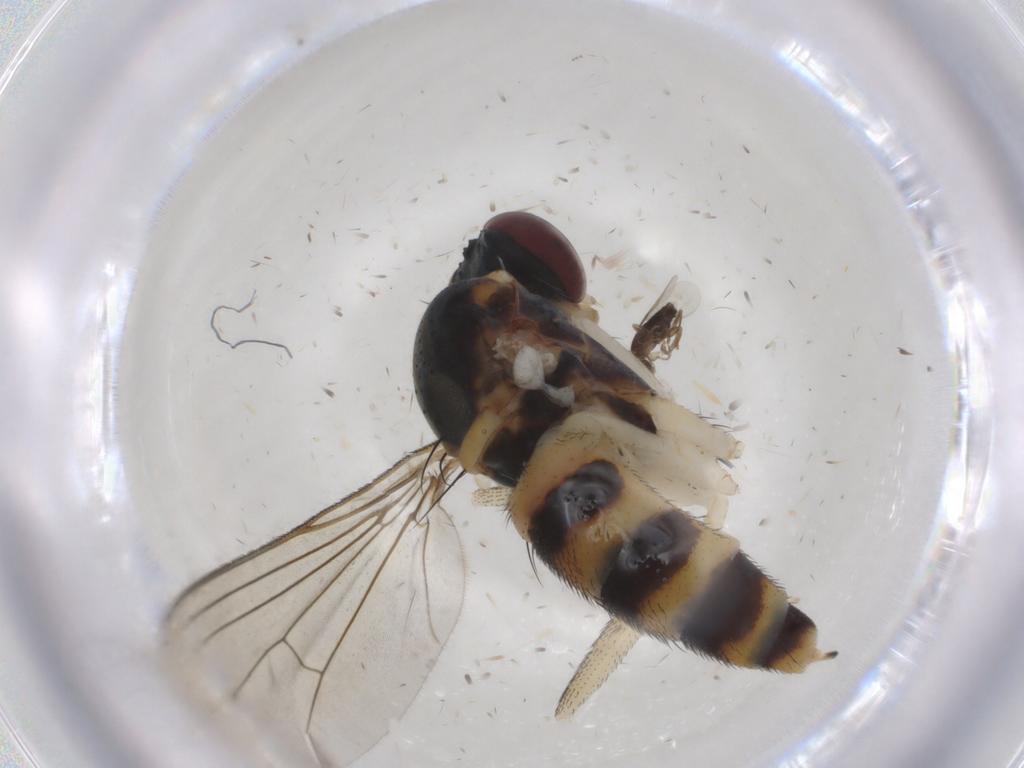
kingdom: Animalia
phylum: Arthropoda
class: Insecta
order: Diptera
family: Dolichopodidae
